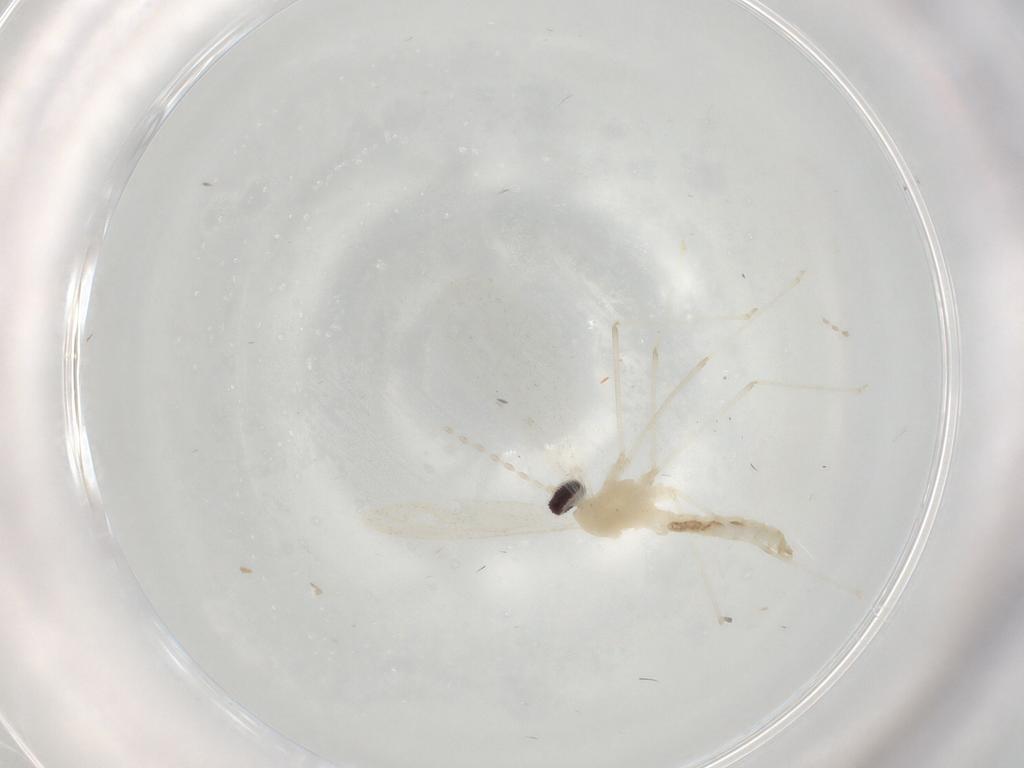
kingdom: Animalia
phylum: Arthropoda
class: Insecta
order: Diptera
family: Cecidomyiidae
